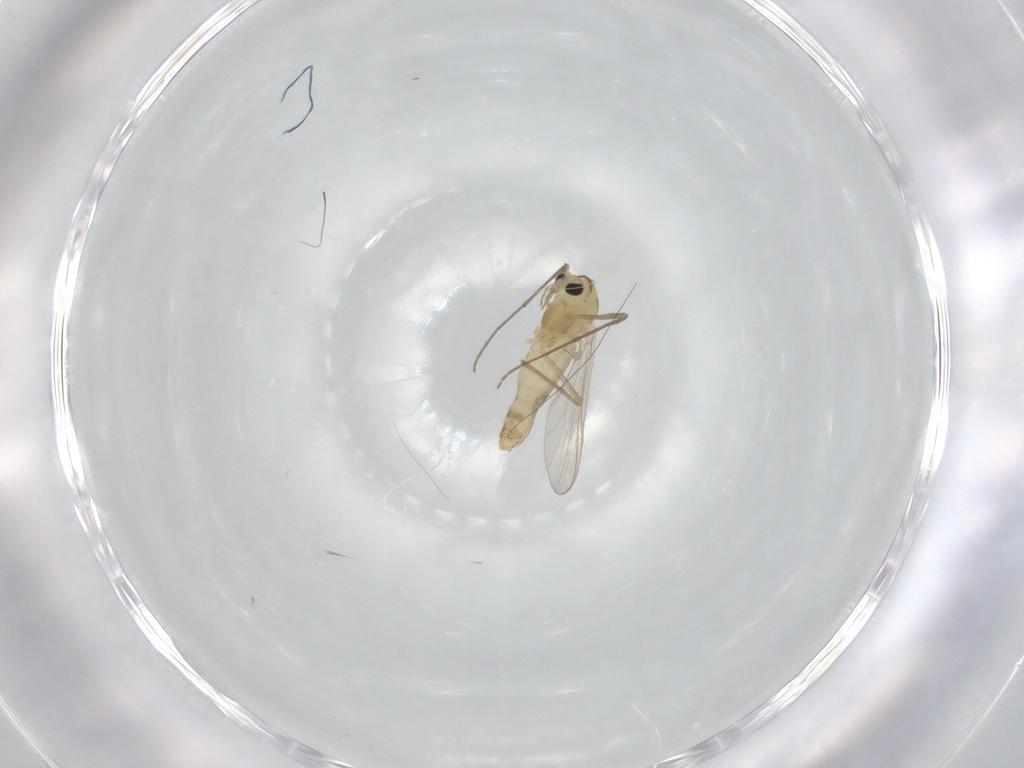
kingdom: Animalia
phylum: Arthropoda
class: Insecta
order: Diptera
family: Chironomidae
